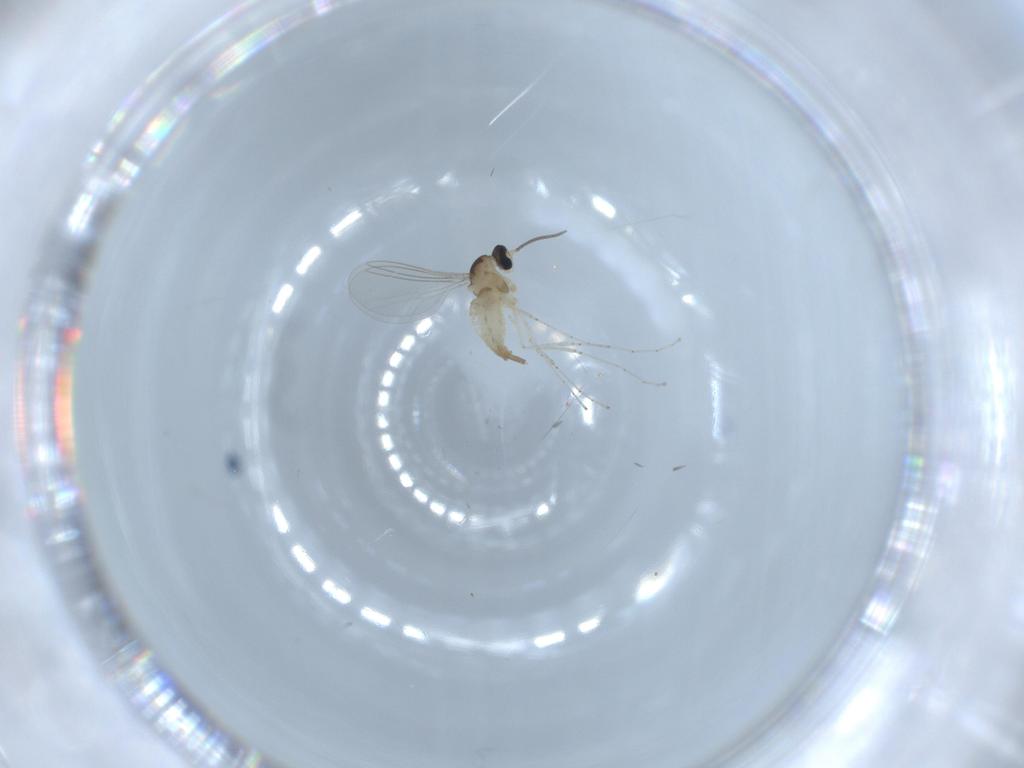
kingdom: Animalia
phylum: Arthropoda
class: Insecta
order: Diptera
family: Cecidomyiidae
